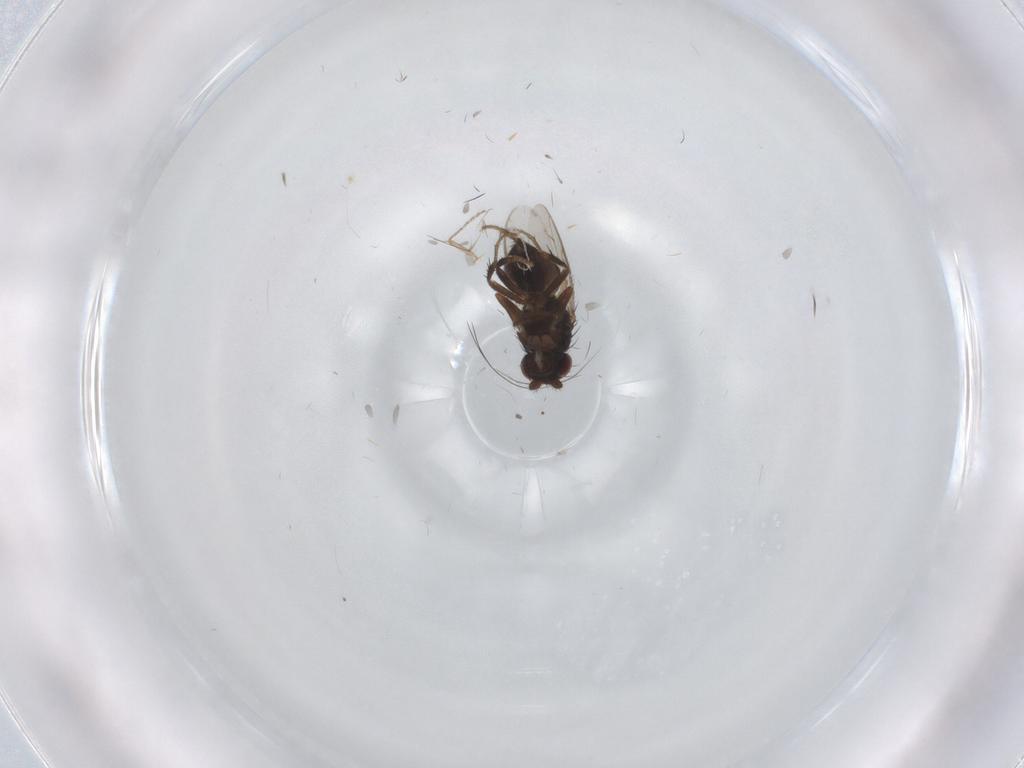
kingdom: Animalia
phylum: Arthropoda
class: Insecta
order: Diptera
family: Sphaeroceridae
